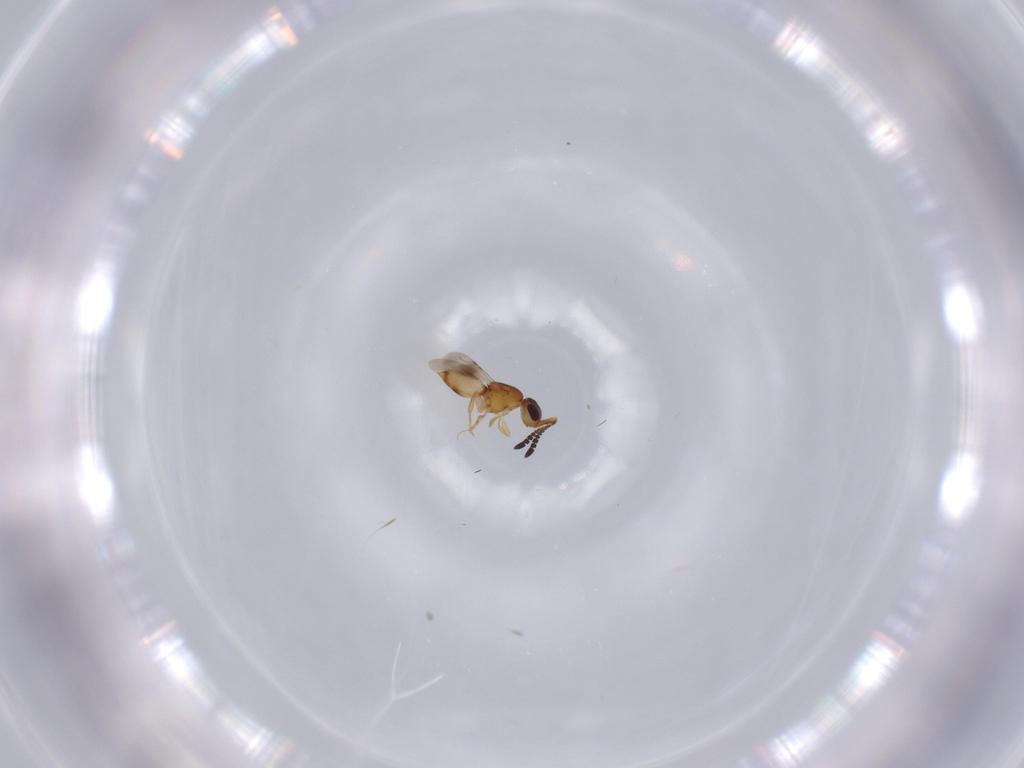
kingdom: Animalia
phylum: Arthropoda
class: Insecta
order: Hymenoptera
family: Ceraphronidae
